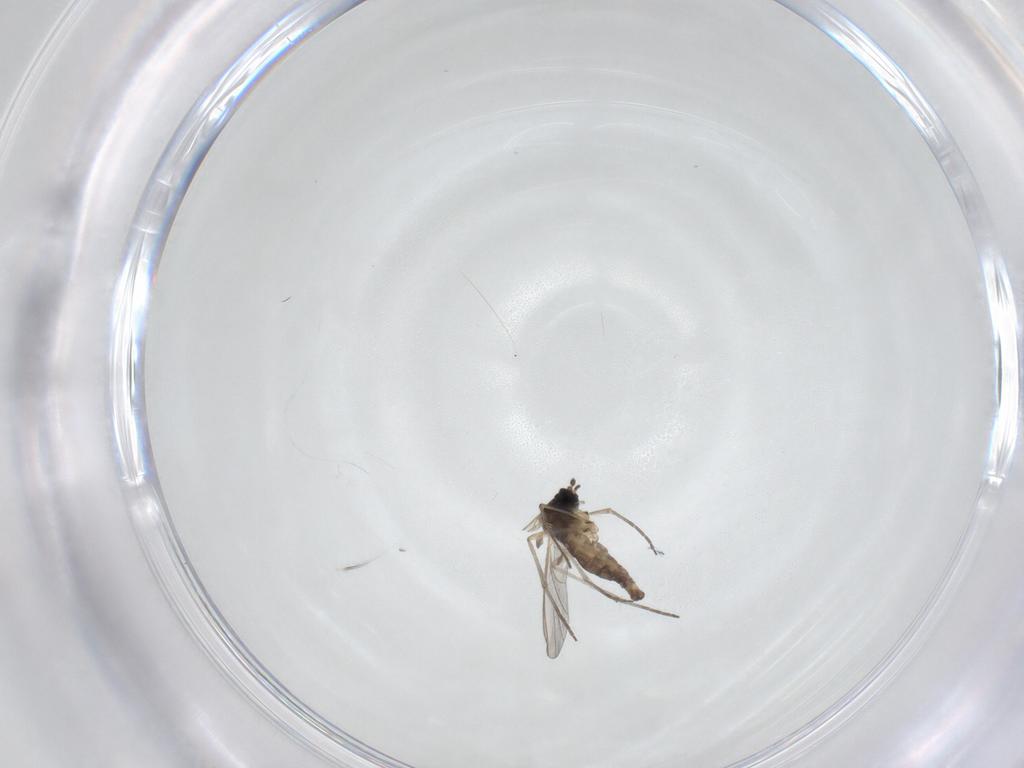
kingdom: Animalia
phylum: Arthropoda
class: Insecta
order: Diptera
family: Sciaridae
